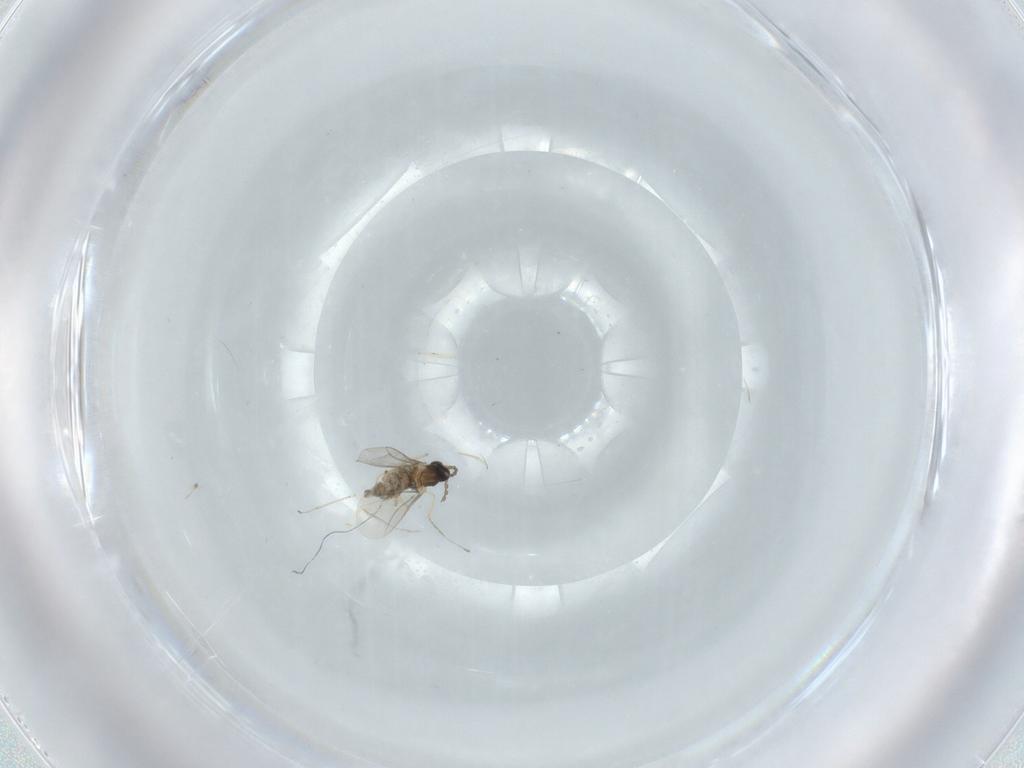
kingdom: Animalia
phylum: Arthropoda
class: Insecta
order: Diptera
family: Cecidomyiidae
